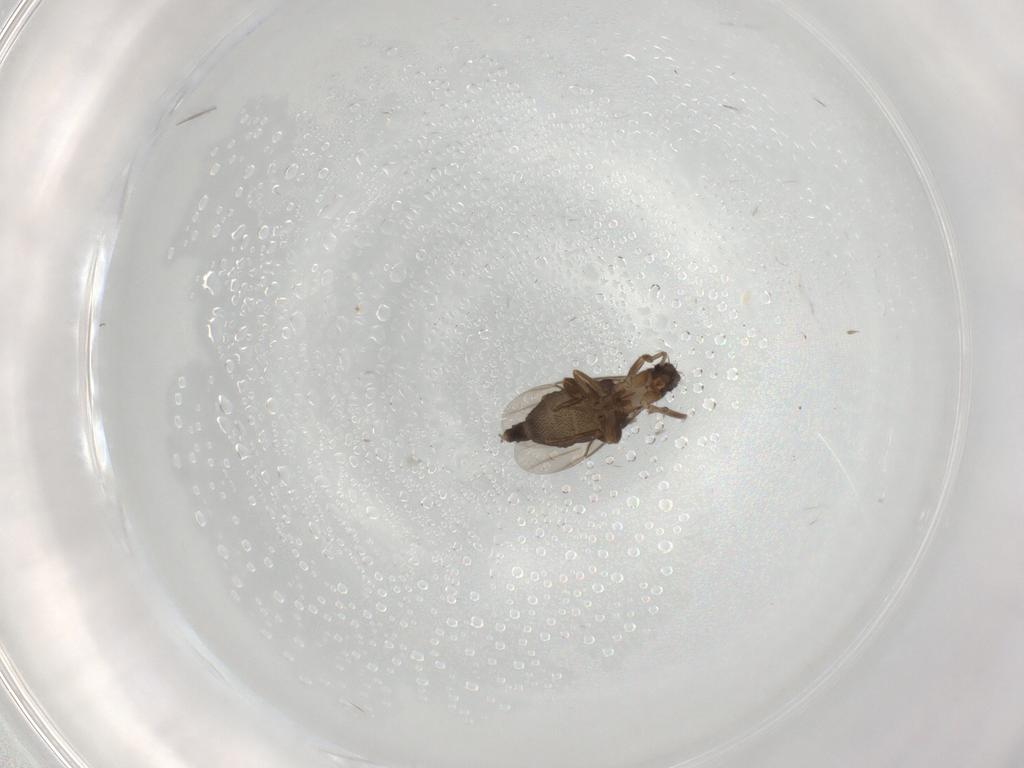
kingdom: Animalia
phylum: Arthropoda
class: Insecta
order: Diptera
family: Phoridae
